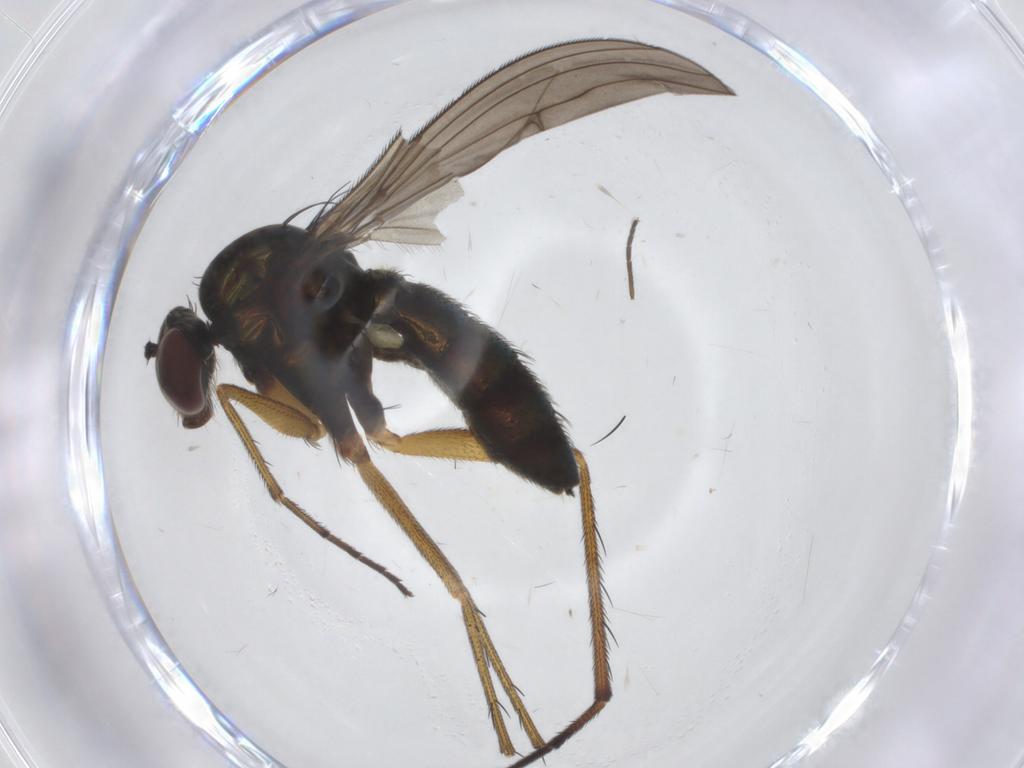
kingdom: Animalia
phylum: Arthropoda
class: Insecta
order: Diptera
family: Dolichopodidae
